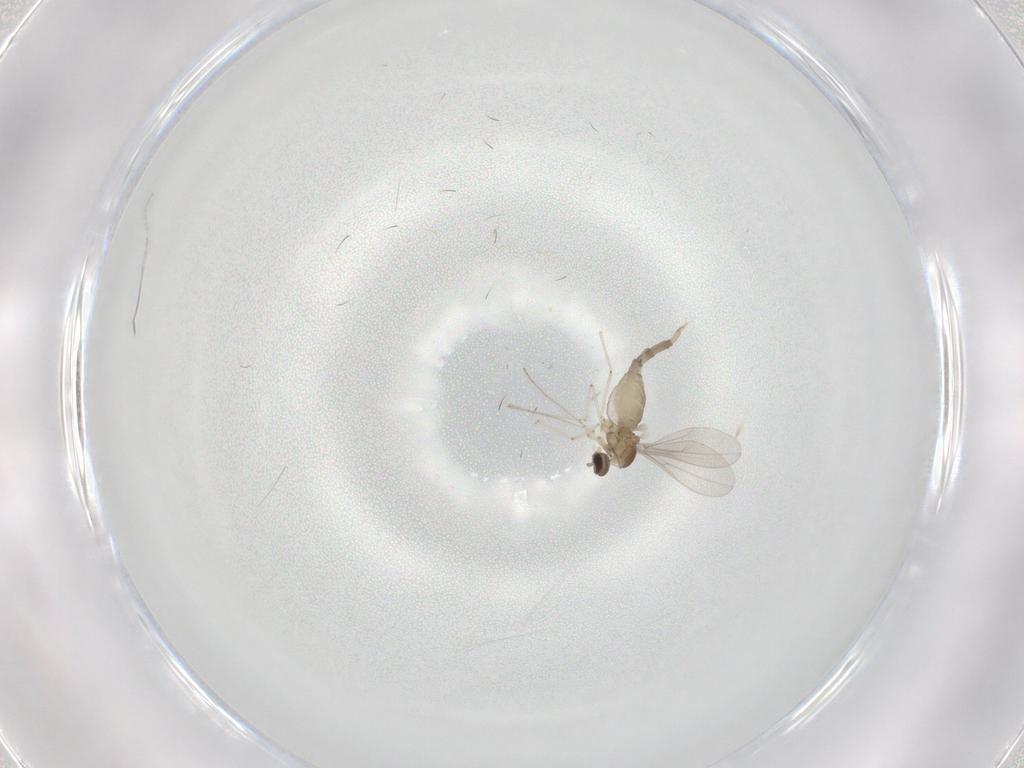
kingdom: Animalia
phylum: Arthropoda
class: Insecta
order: Diptera
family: Cecidomyiidae
